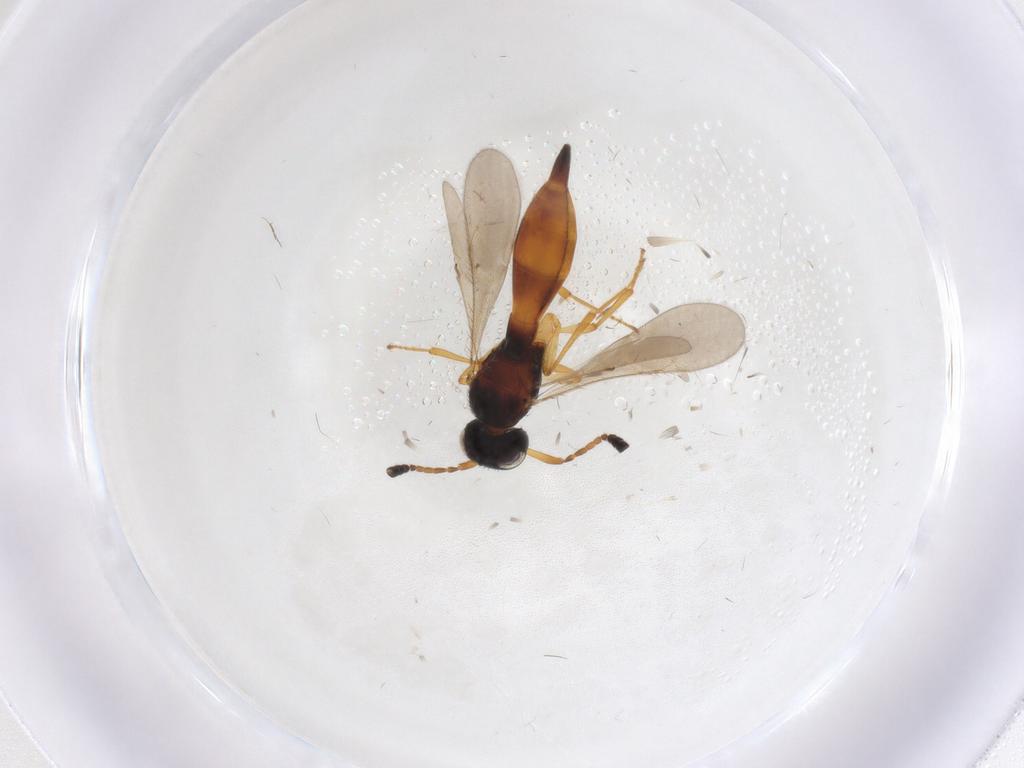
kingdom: Animalia
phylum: Arthropoda
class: Insecta
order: Hymenoptera
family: Scelionidae
